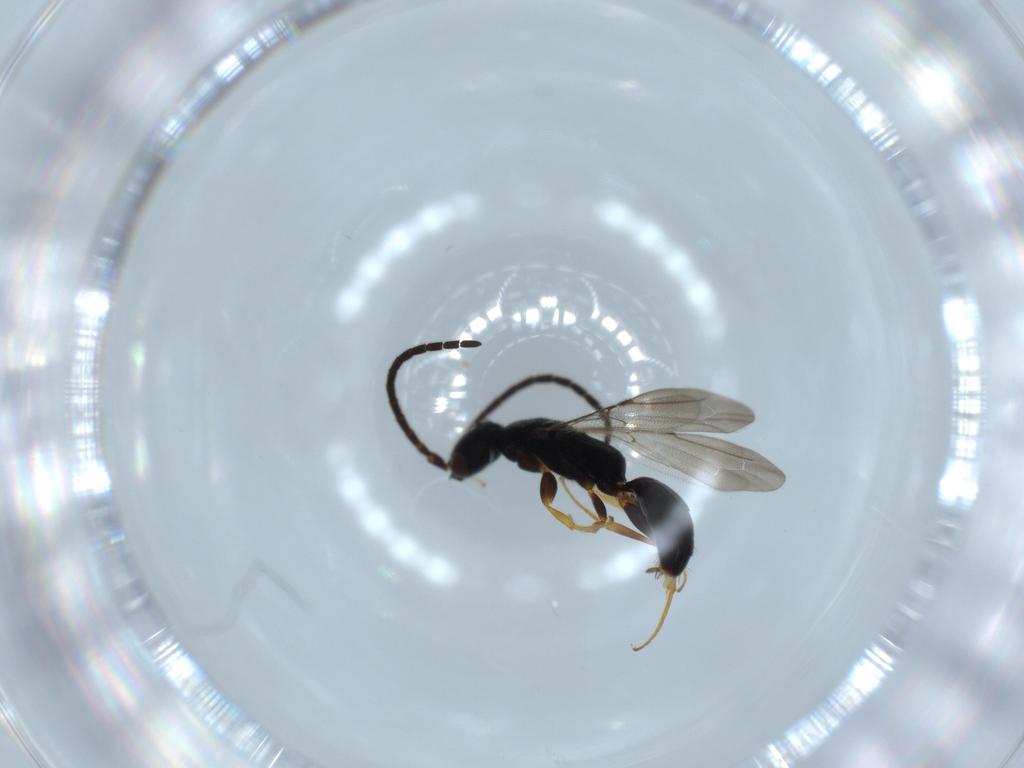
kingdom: Animalia
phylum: Arthropoda
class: Insecta
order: Hymenoptera
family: Bethylidae
